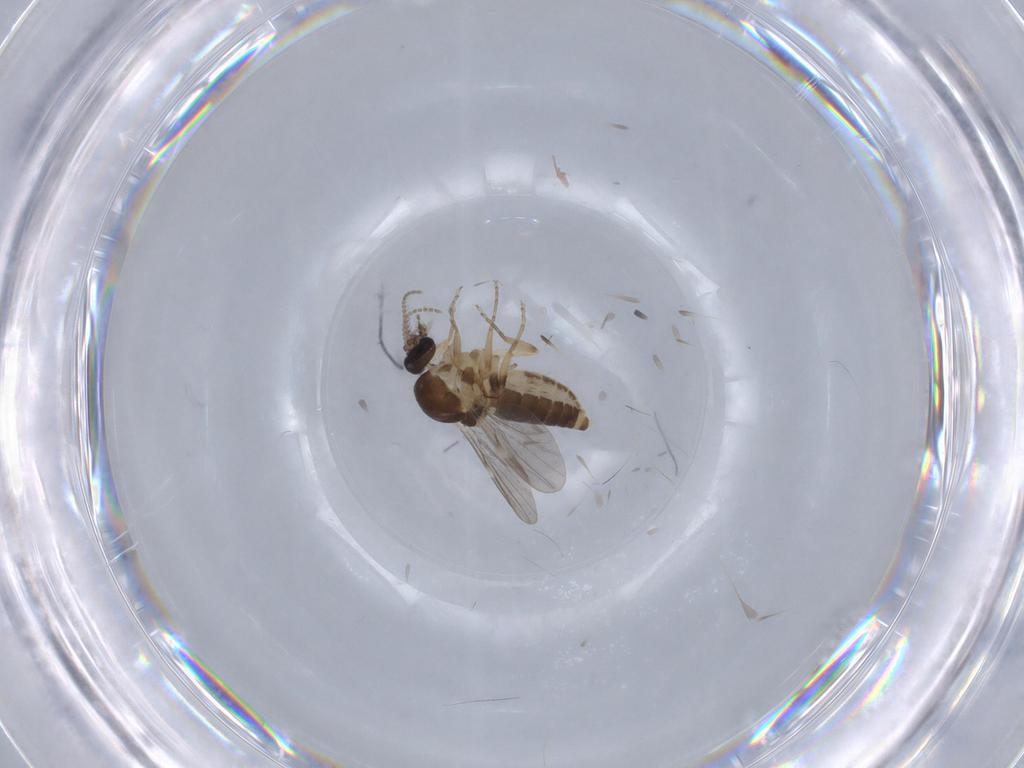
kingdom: Animalia
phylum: Arthropoda
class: Insecta
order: Diptera
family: Ceratopogonidae
